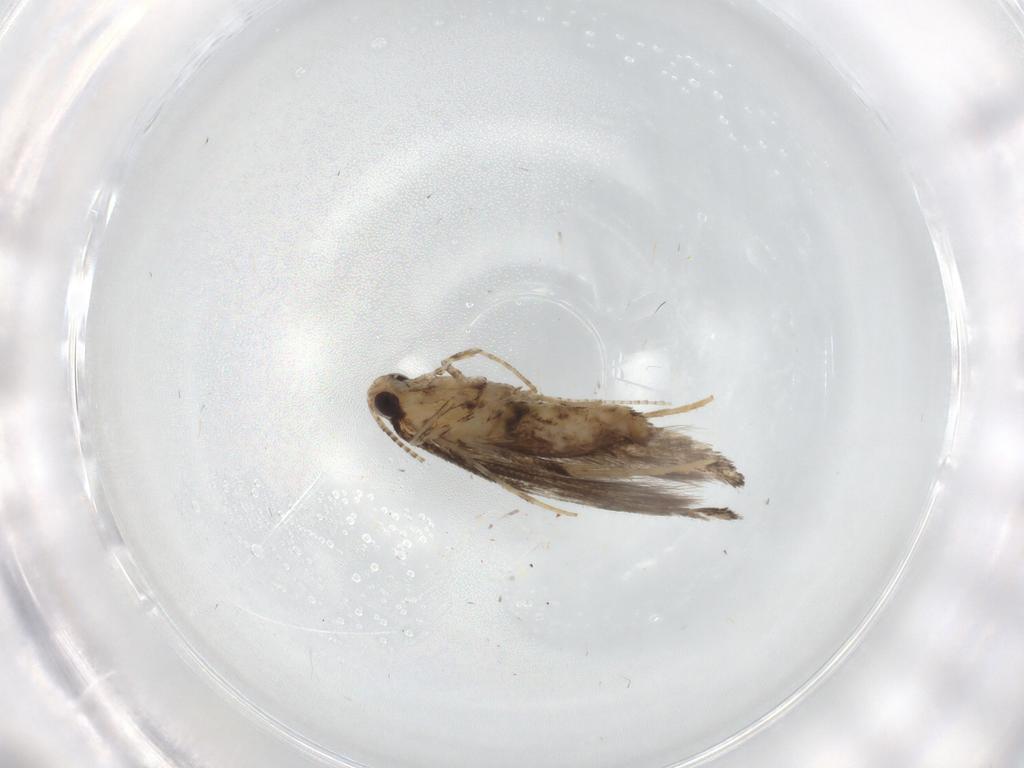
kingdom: Animalia
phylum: Arthropoda
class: Insecta
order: Lepidoptera
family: Gracillariidae
